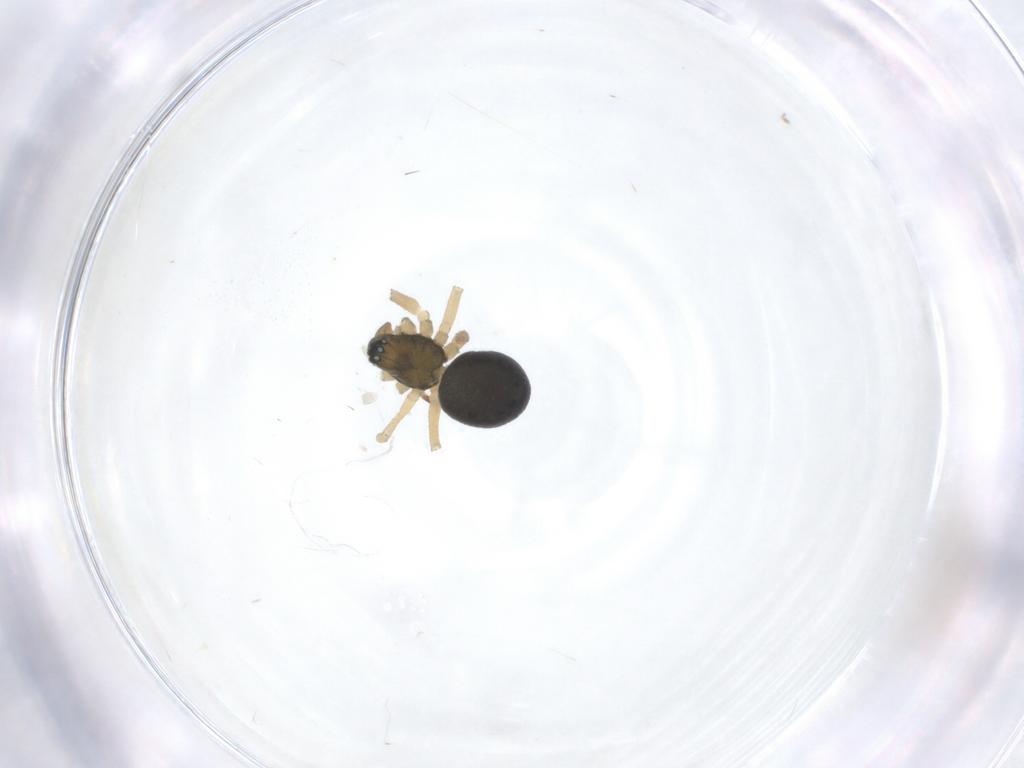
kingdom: Animalia
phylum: Arthropoda
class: Arachnida
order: Araneae
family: Linyphiidae
